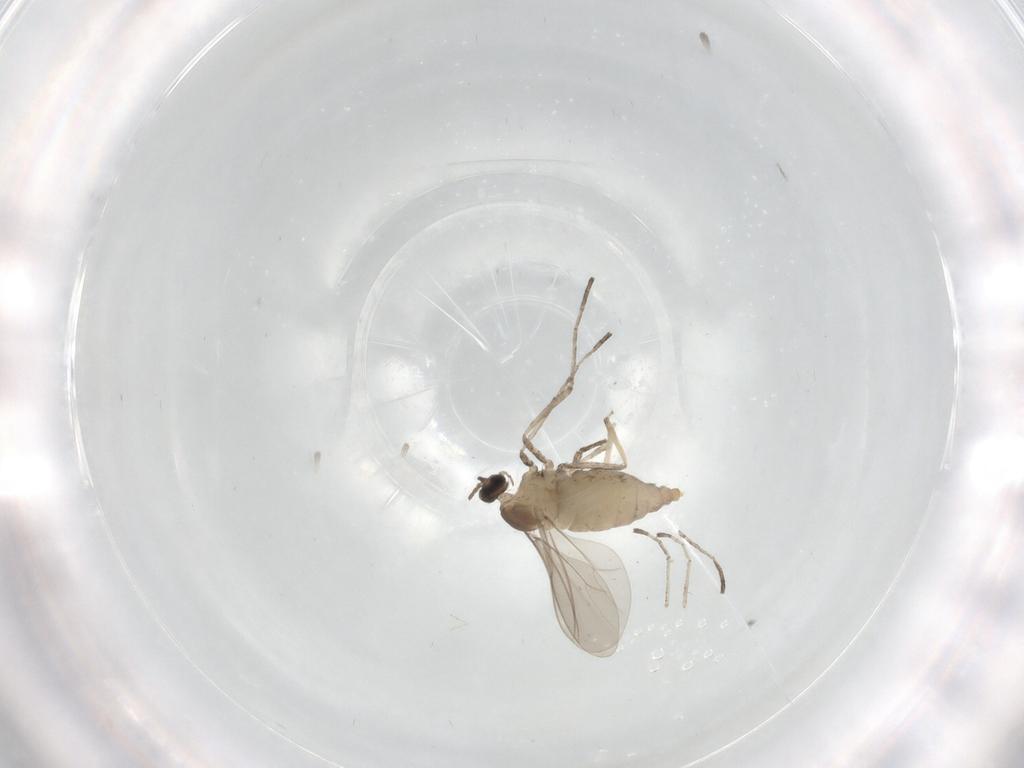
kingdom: Animalia
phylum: Arthropoda
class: Insecta
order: Diptera
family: Cecidomyiidae
